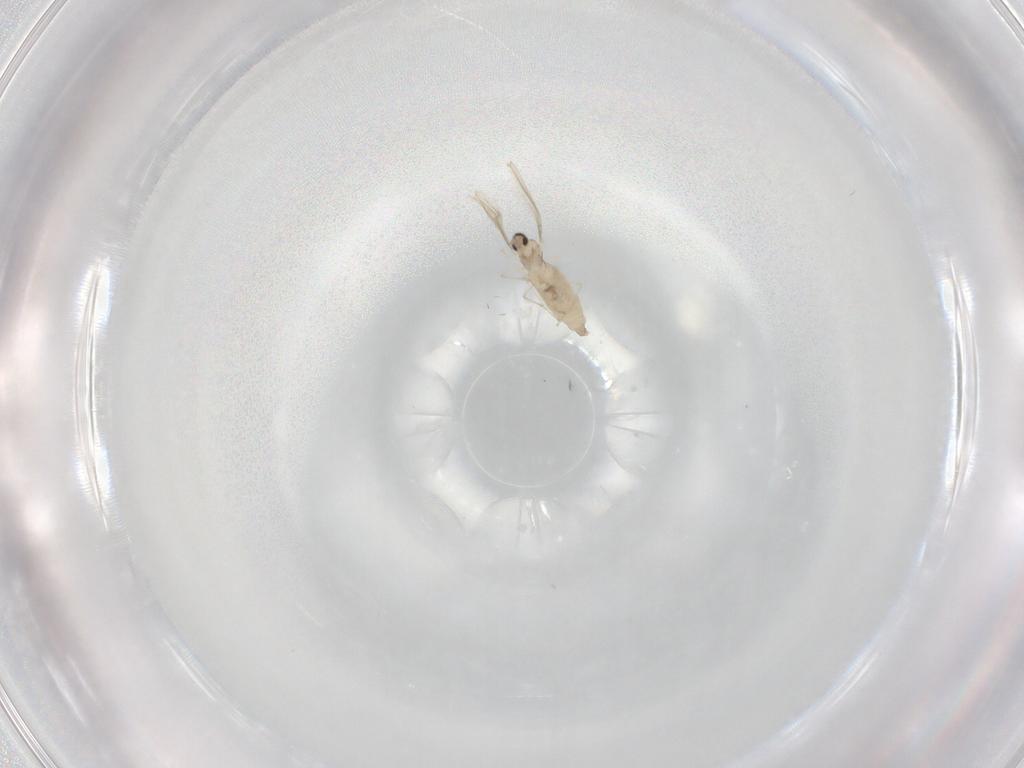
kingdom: Animalia
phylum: Arthropoda
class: Insecta
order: Diptera
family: Cecidomyiidae
